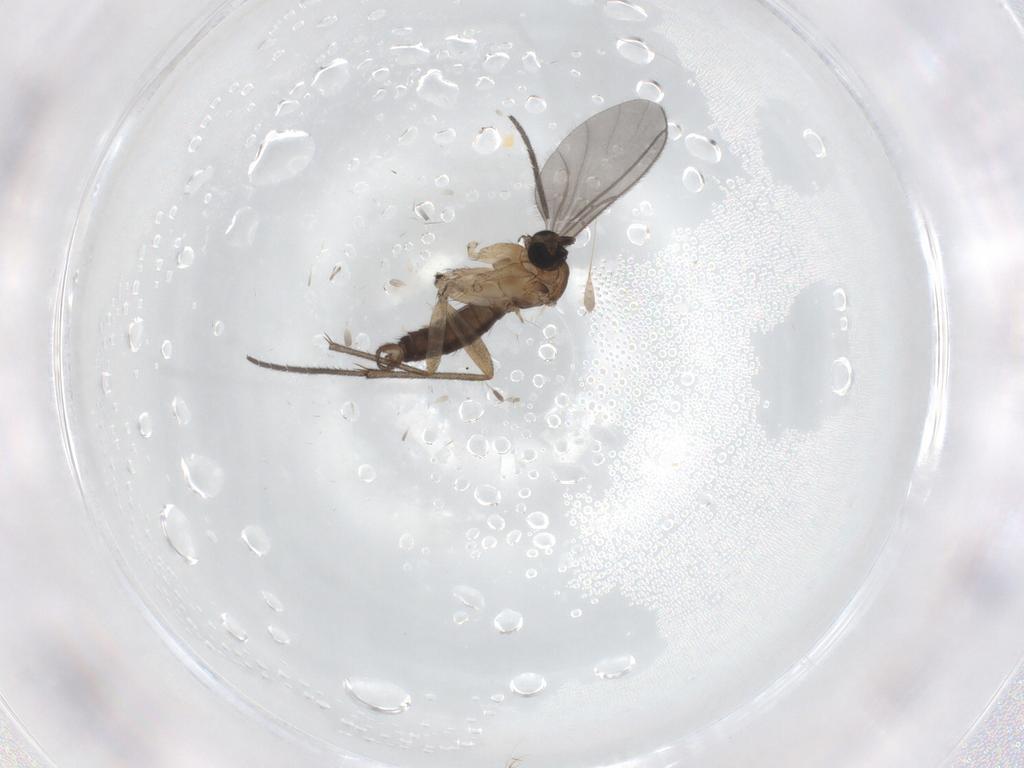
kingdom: Animalia
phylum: Arthropoda
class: Insecta
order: Diptera
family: Sciaridae
